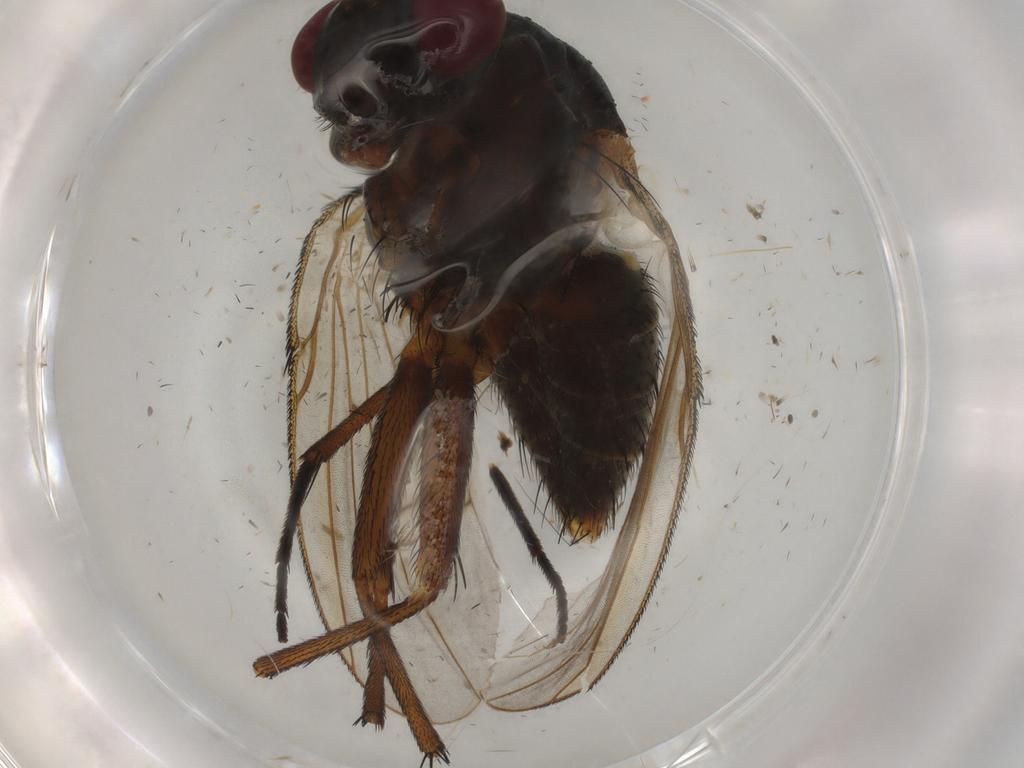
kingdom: Animalia
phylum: Arthropoda
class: Insecta
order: Diptera
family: Muscidae
